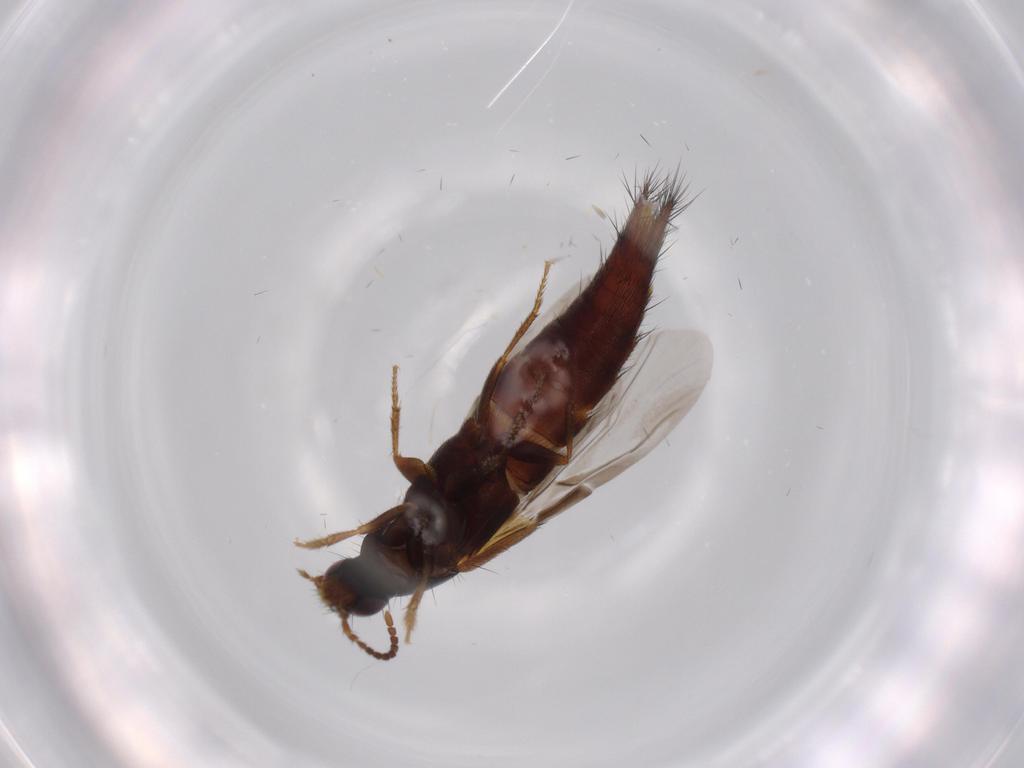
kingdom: Animalia
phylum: Arthropoda
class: Insecta
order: Coleoptera
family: Staphylinidae
